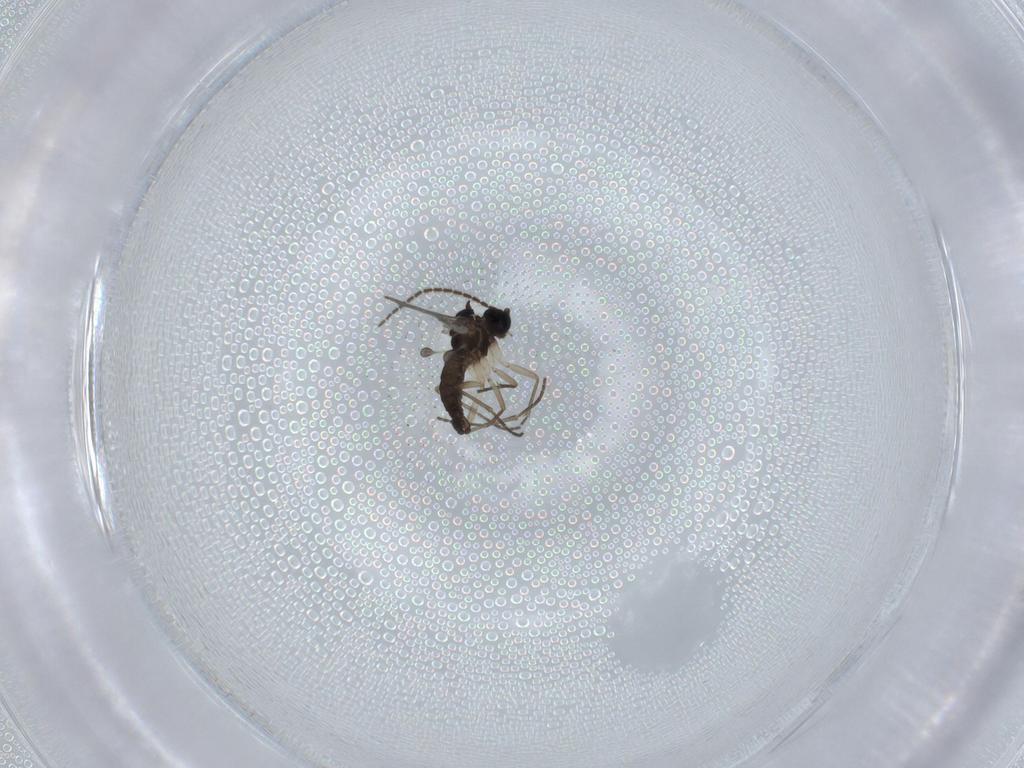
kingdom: Animalia
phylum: Arthropoda
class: Insecta
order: Diptera
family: Sciaridae
